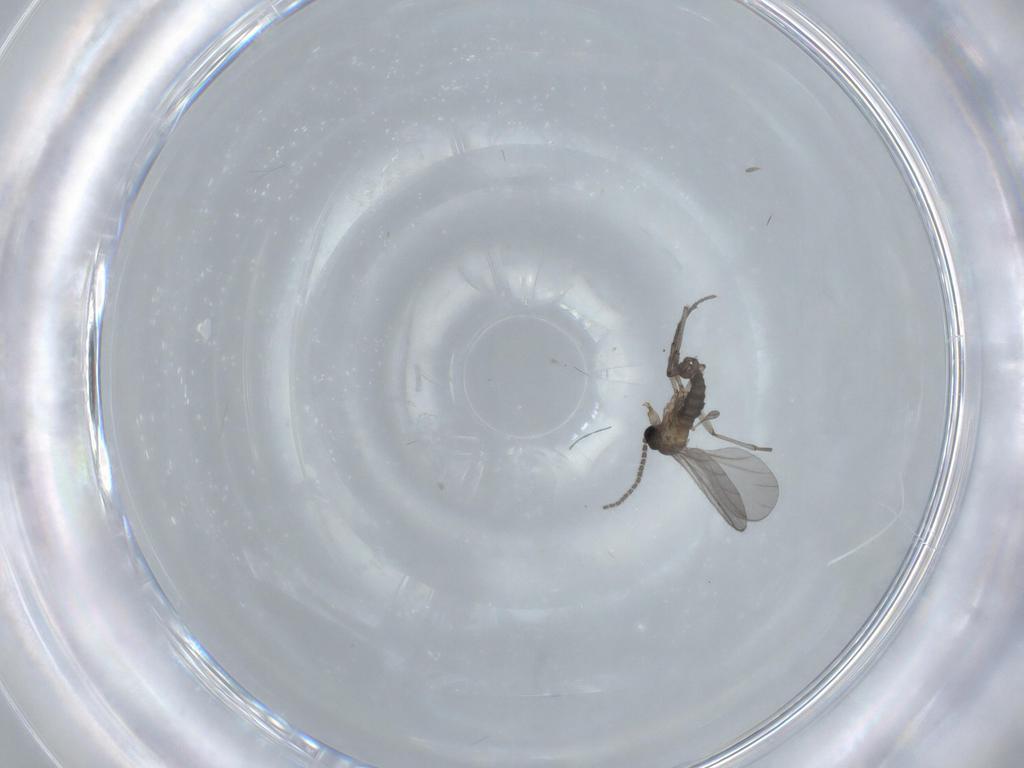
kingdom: Animalia
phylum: Arthropoda
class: Insecta
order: Diptera
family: Sciaridae
